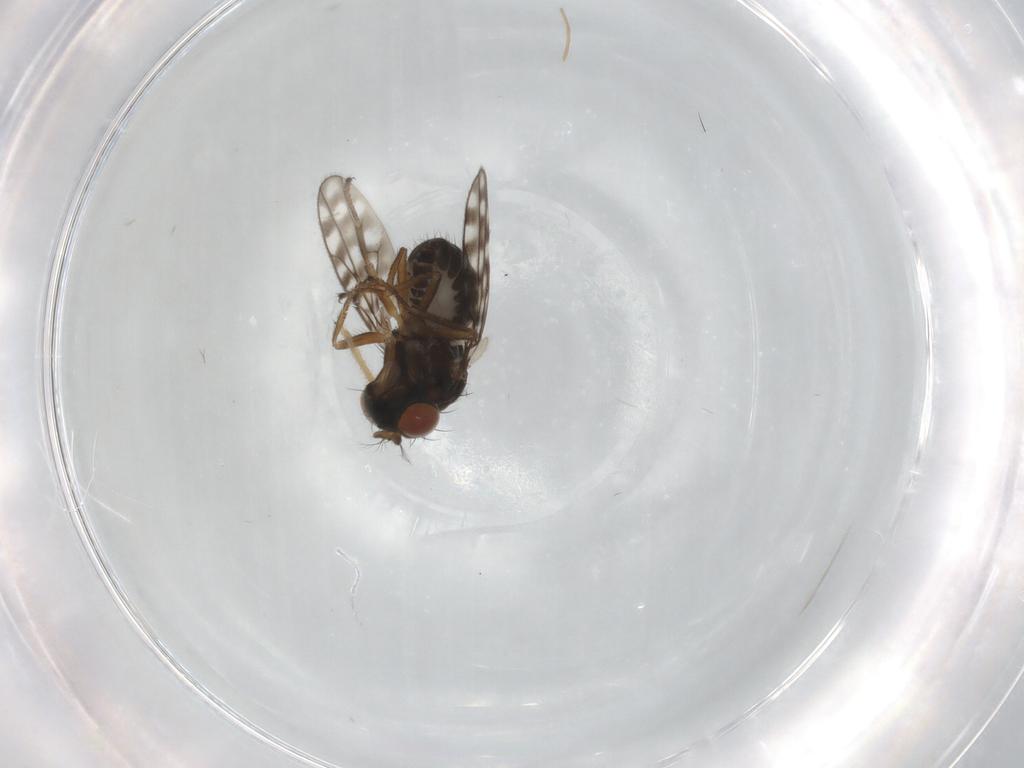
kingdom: Animalia
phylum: Arthropoda
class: Insecta
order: Diptera
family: Ephydridae
